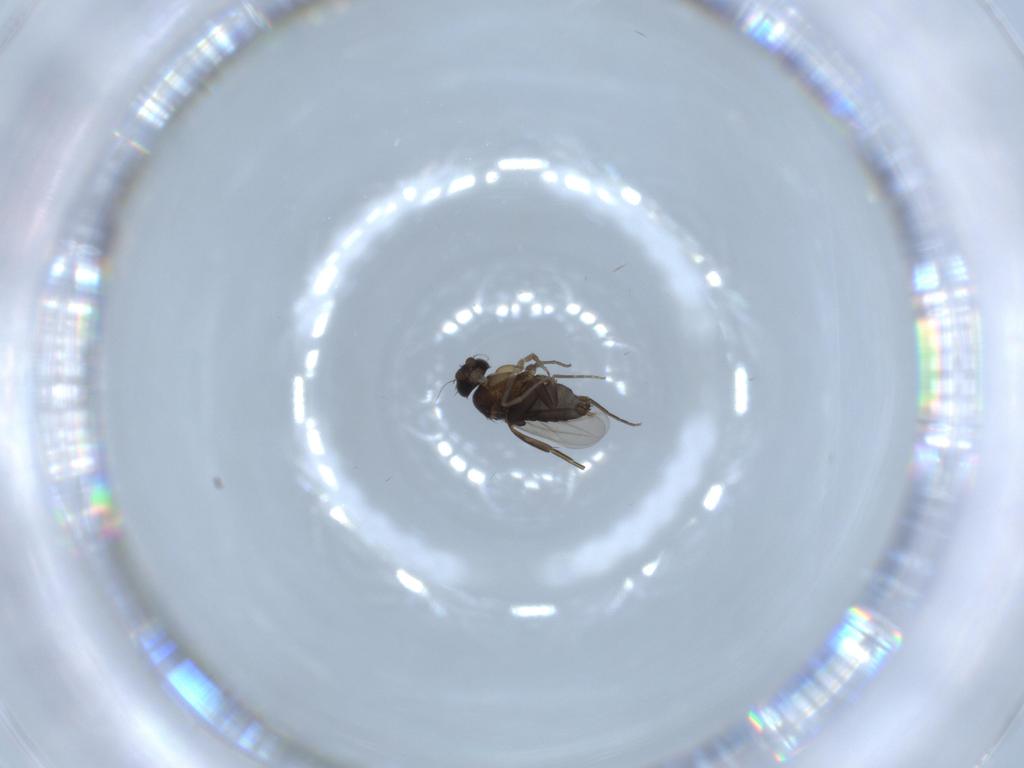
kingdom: Animalia
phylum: Arthropoda
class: Insecta
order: Diptera
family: Phoridae
